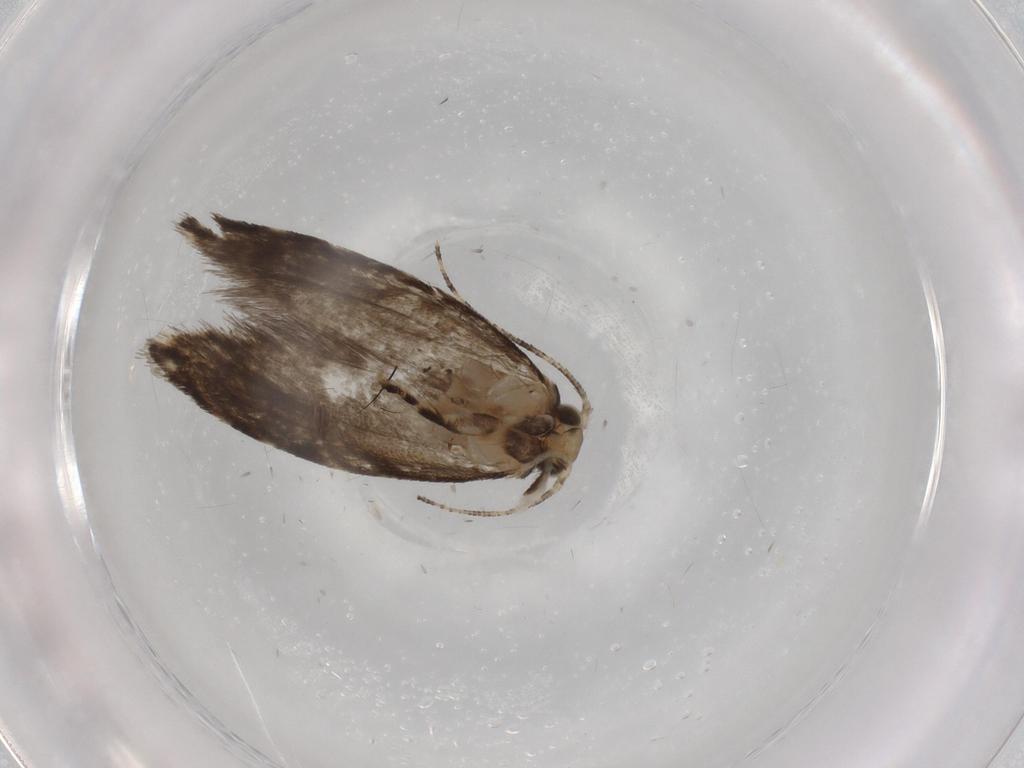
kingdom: Animalia
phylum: Arthropoda
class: Insecta
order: Lepidoptera
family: Tineidae
